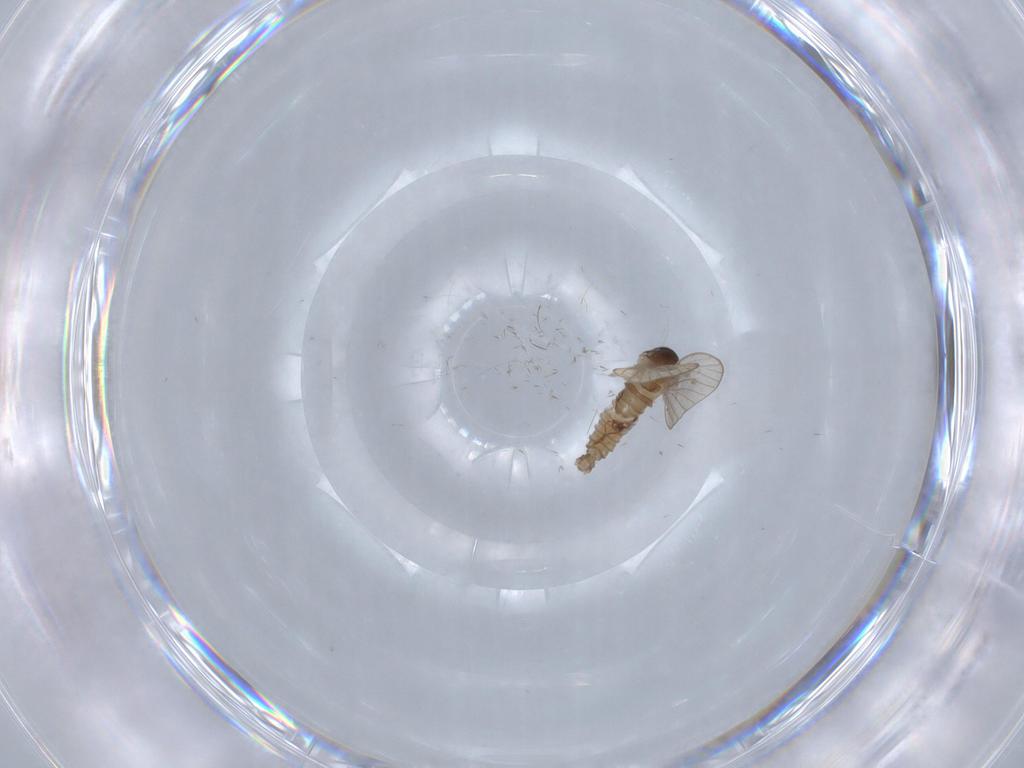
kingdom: Animalia
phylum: Arthropoda
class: Insecta
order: Diptera
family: Psychodidae
